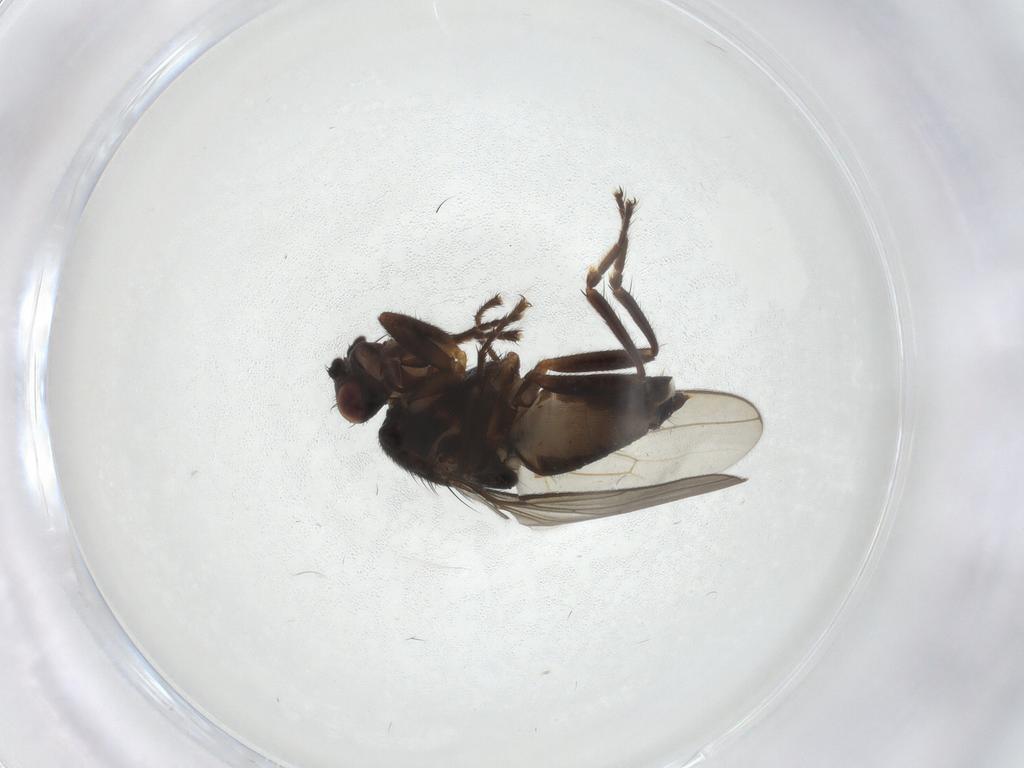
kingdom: Animalia
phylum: Arthropoda
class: Insecta
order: Diptera
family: Sphaeroceridae
